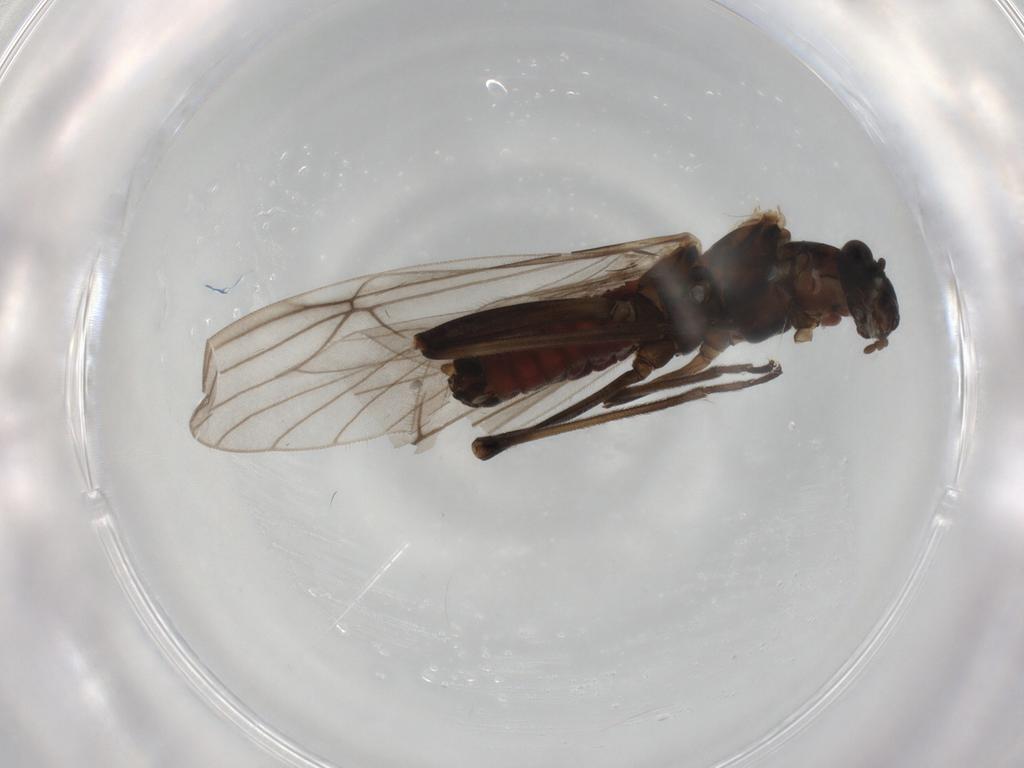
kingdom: Animalia
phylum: Arthropoda
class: Insecta
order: Plecoptera
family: Nemouridae
